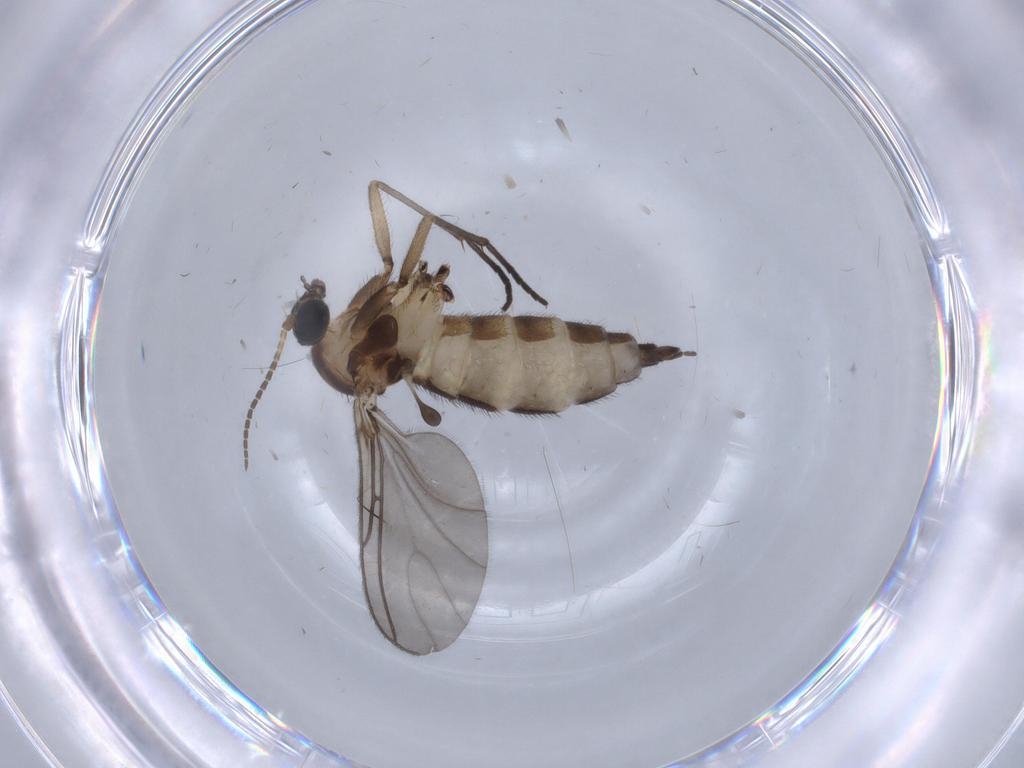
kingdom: Animalia
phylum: Arthropoda
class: Insecta
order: Diptera
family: Sciaridae
